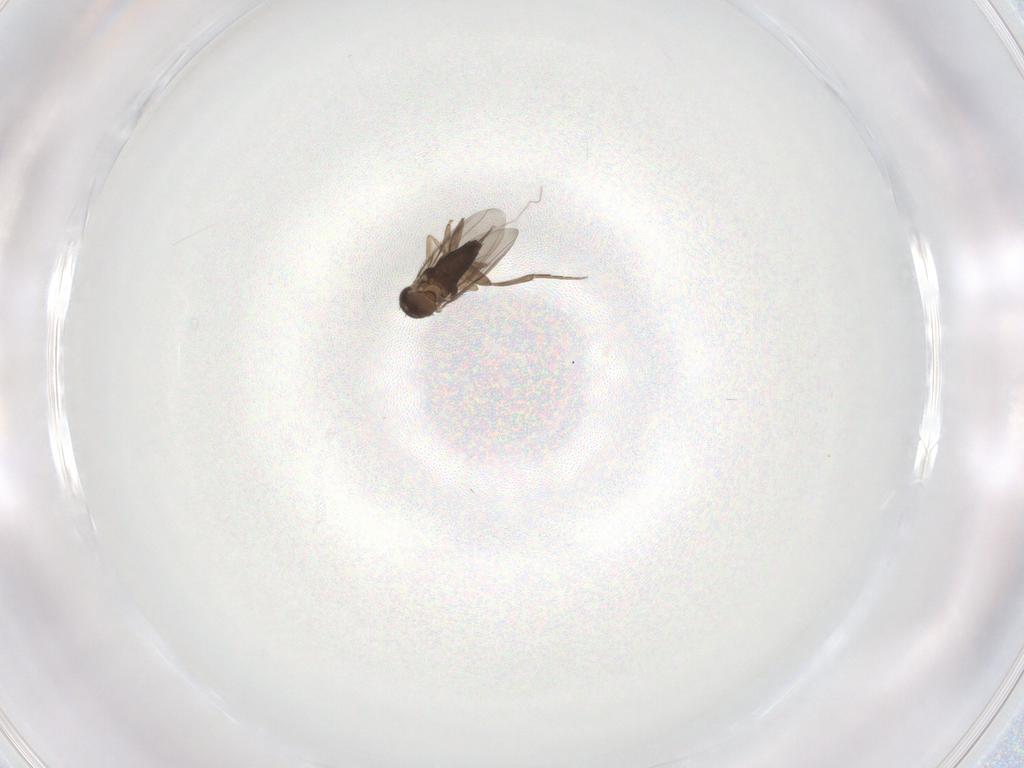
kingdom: Animalia
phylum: Arthropoda
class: Insecta
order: Diptera
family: Phoridae
